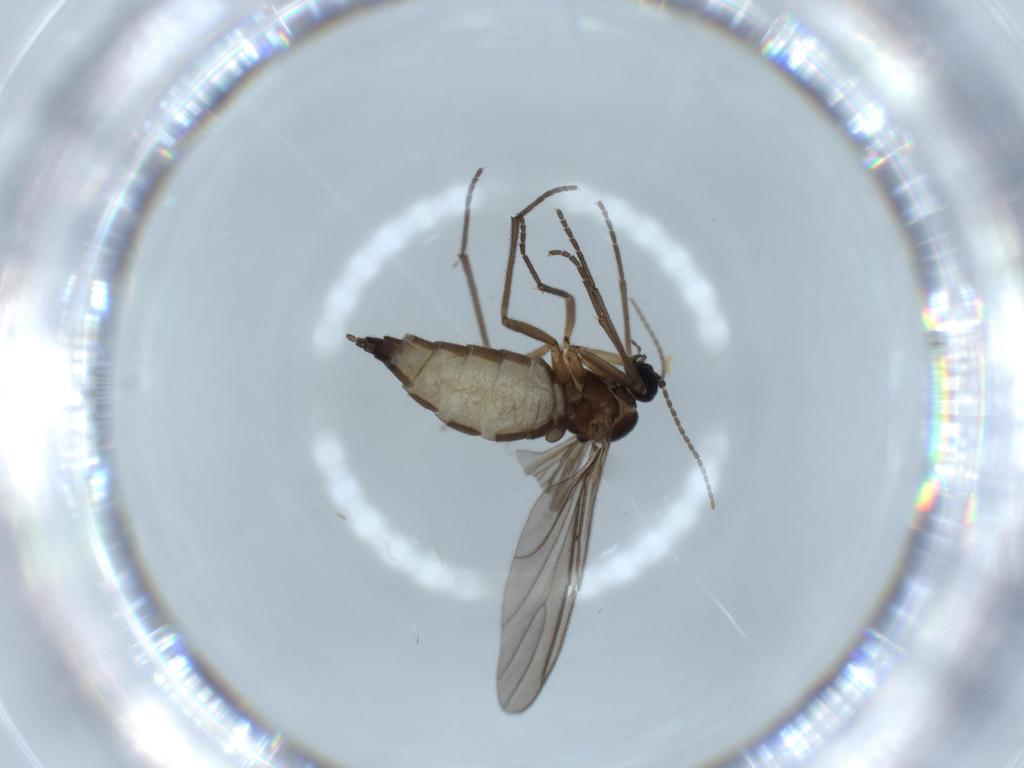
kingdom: Animalia
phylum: Arthropoda
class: Insecta
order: Diptera
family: Sciaridae
